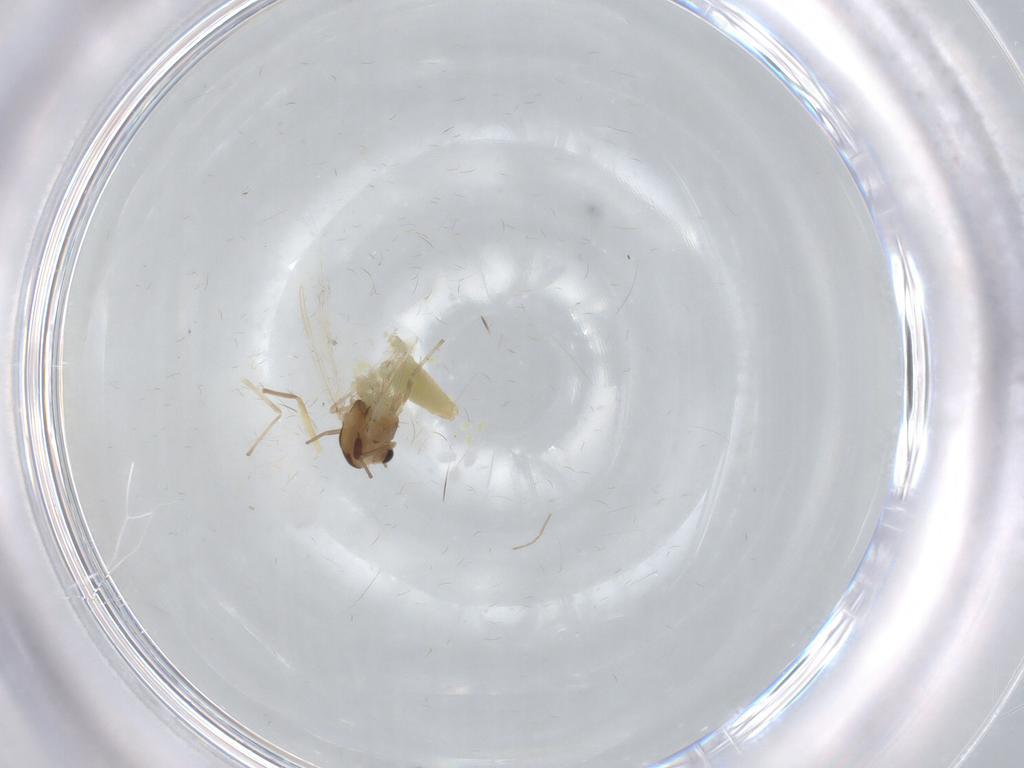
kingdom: Animalia
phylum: Arthropoda
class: Insecta
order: Diptera
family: Chironomidae
